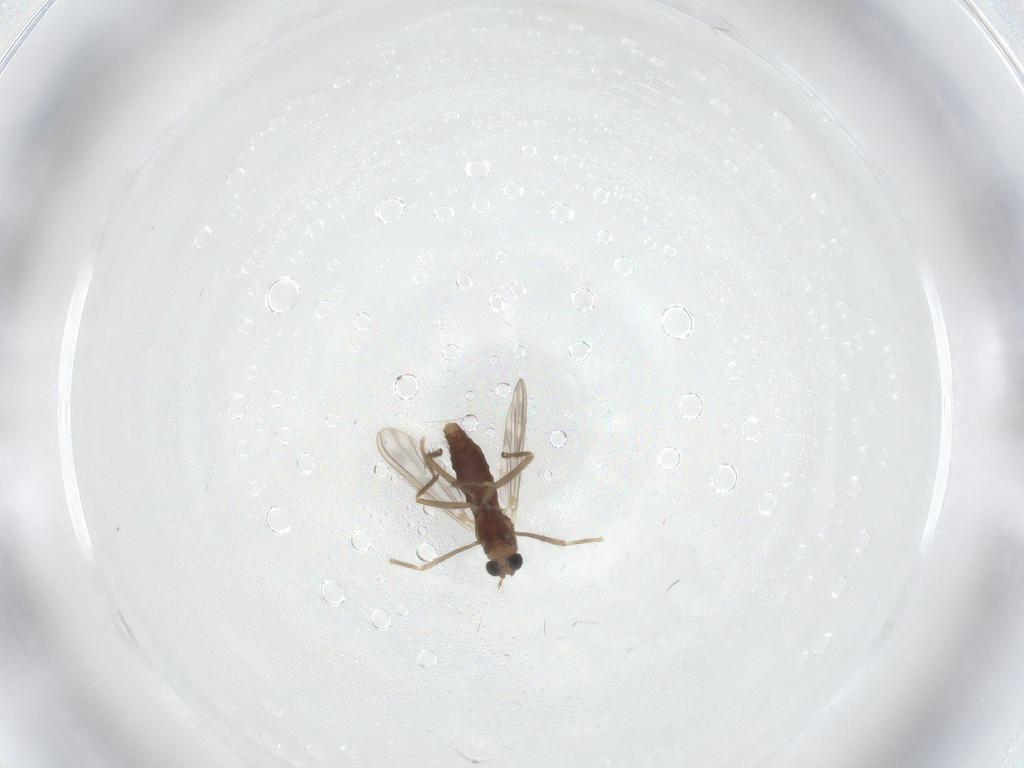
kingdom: Animalia
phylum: Arthropoda
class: Insecta
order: Diptera
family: Chironomidae
